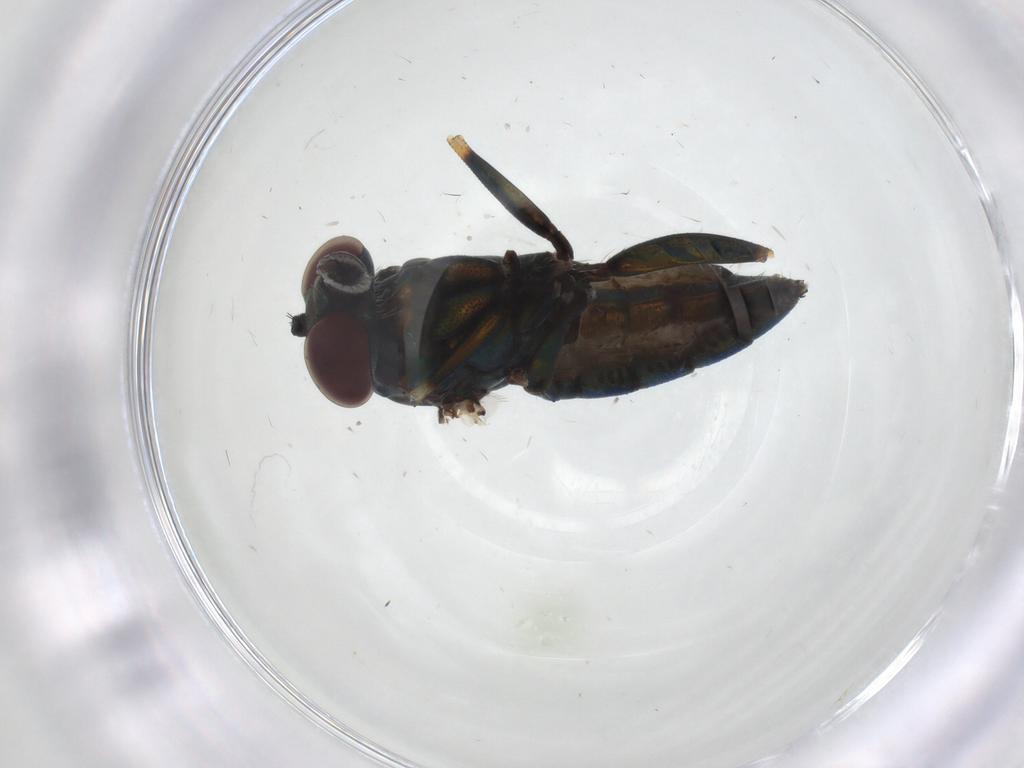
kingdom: Animalia
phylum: Arthropoda
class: Insecta
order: Diptera
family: Dolichopodidae
